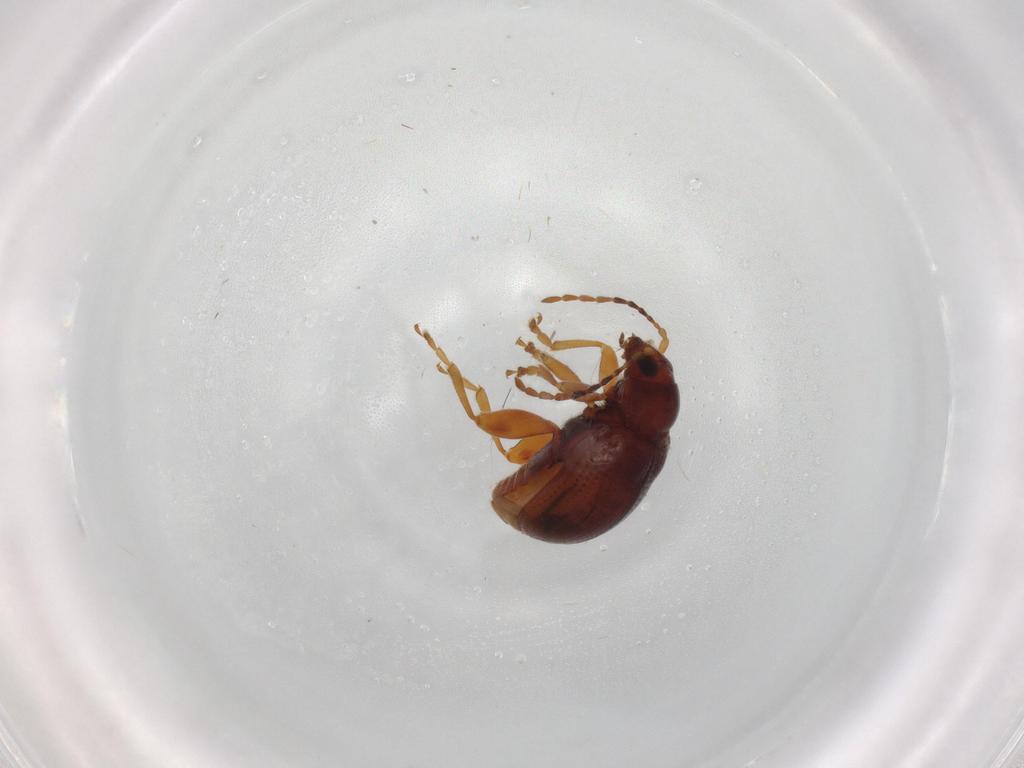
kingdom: Animalia
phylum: Arthropoda
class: Insecta
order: Coleoptera
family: Chrysomelidae
